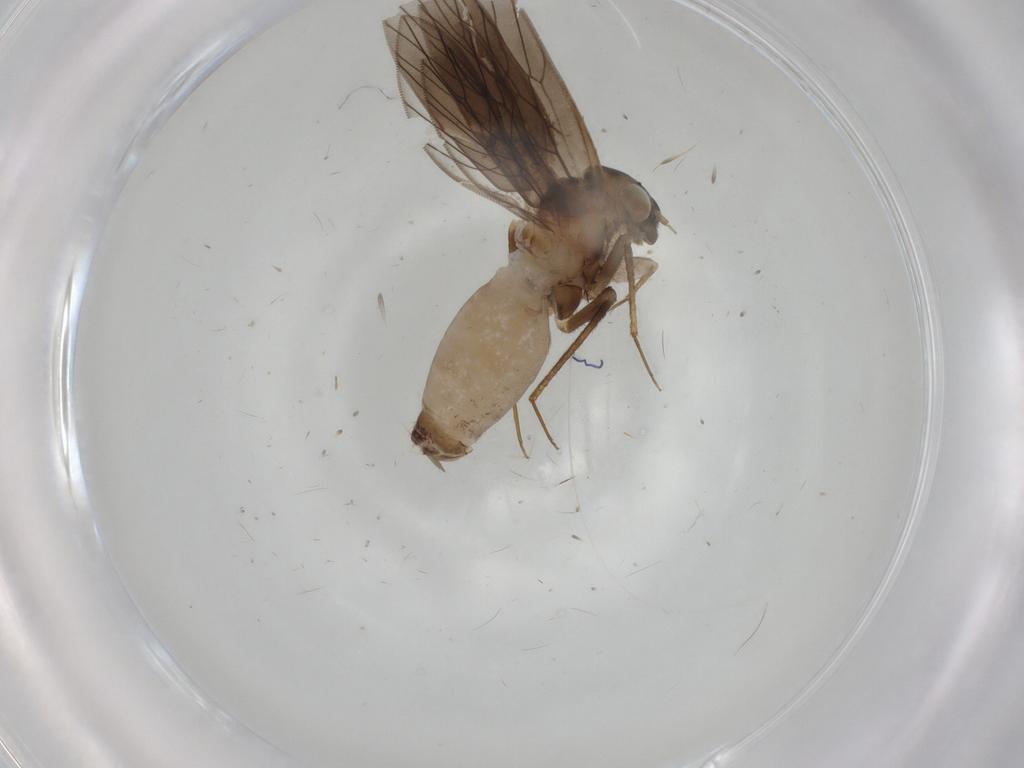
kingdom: Animalia
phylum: Arthropoda
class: Insecta
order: Psocodea
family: Lepidopsocidae
